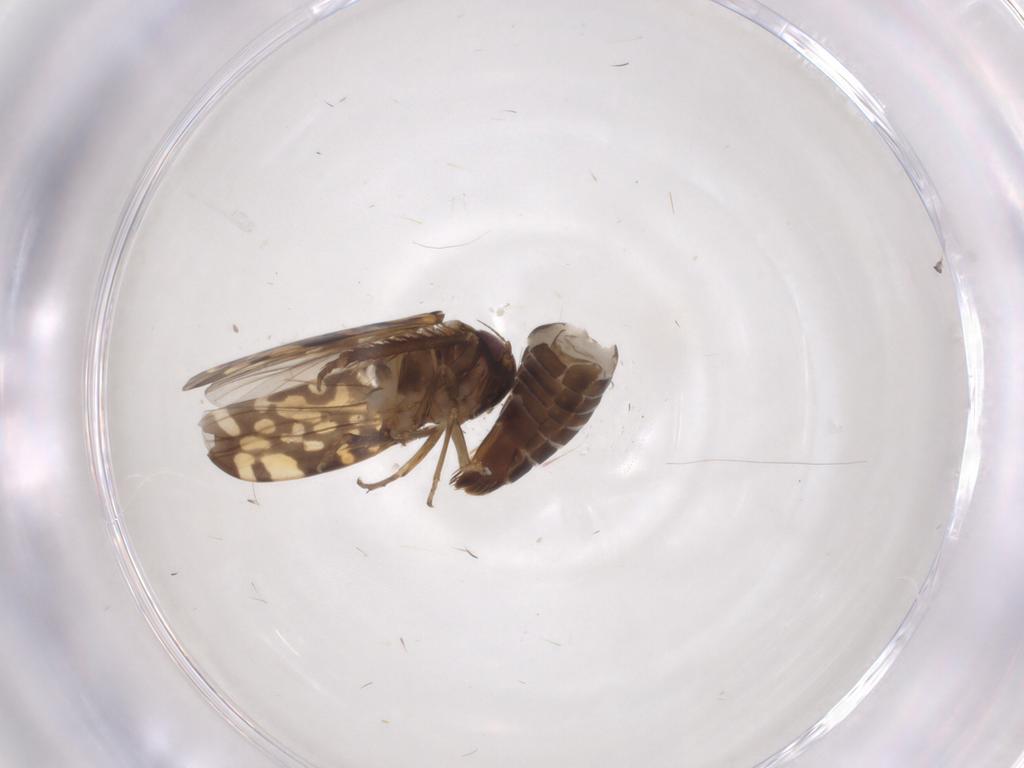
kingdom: Animalia
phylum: Arthropoda
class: Insecta
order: Hemiptera
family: Cicadellidae
